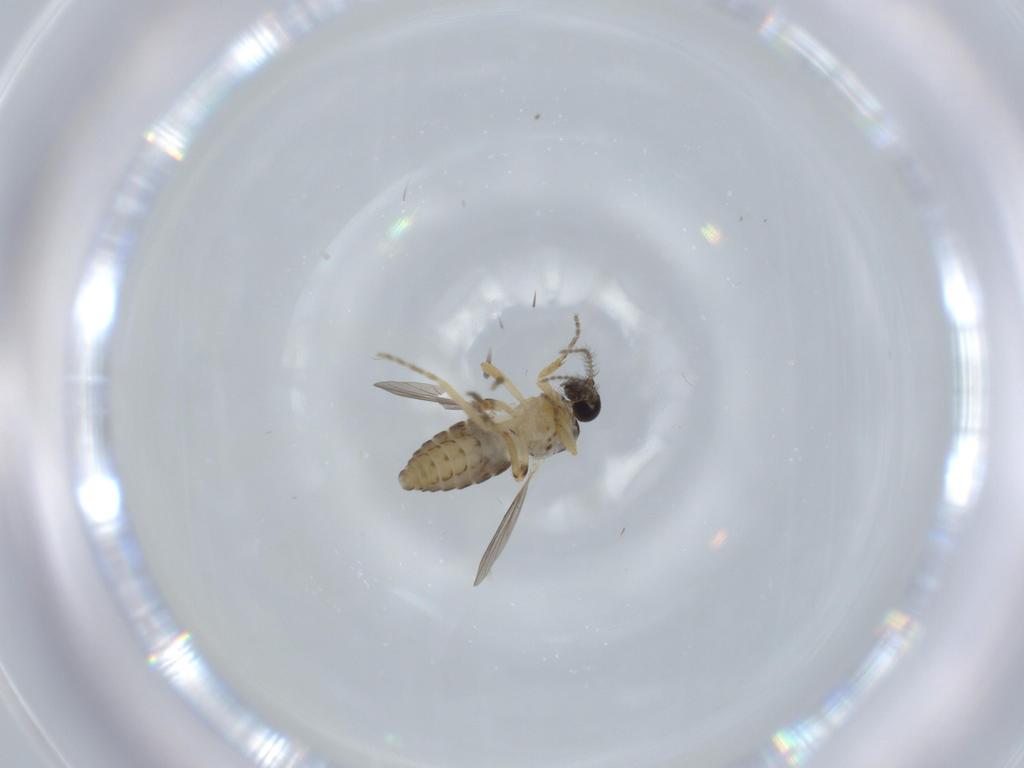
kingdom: Animalia
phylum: Arthropoda
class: Insecta
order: Diptera
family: Ceratopogonidae
